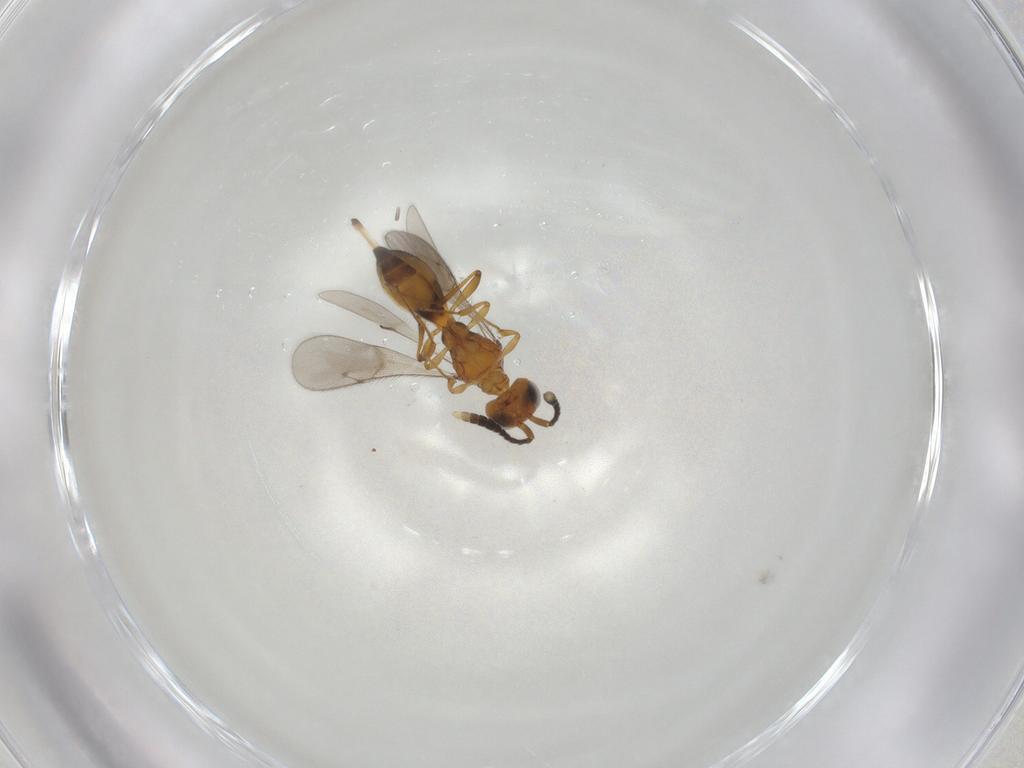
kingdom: Animalia
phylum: Arthropoda
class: Insecta
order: Hymenoptera
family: Scelionidae
